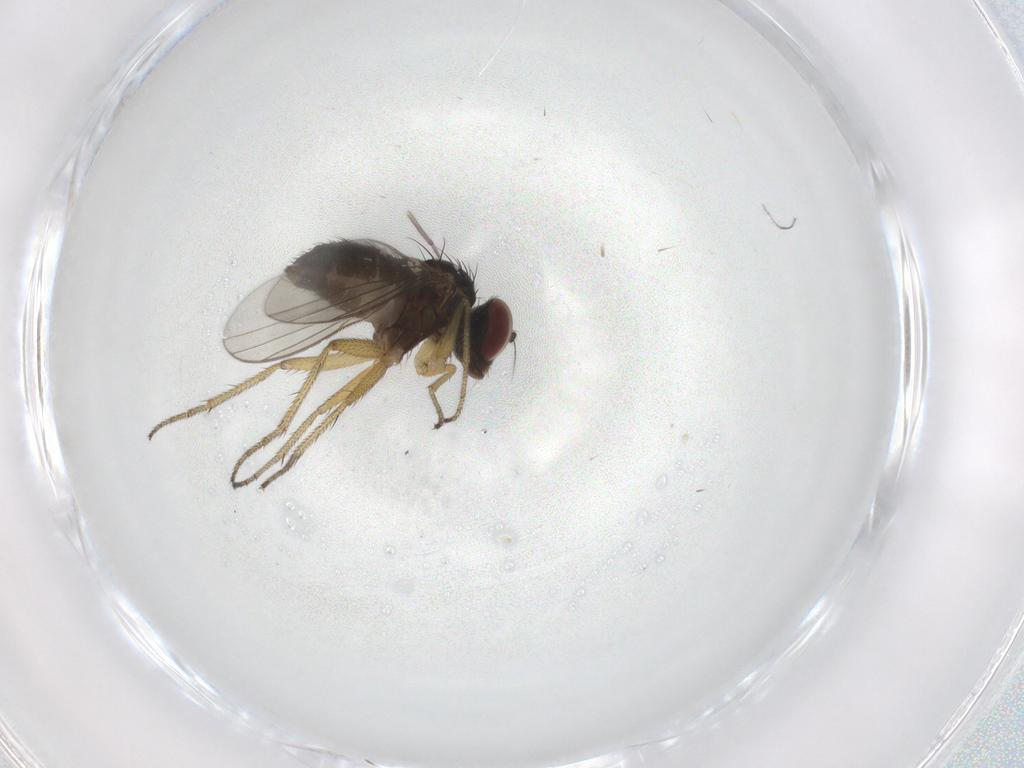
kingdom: Animalia
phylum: Arthropoda
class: Insecta
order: Diptera
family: Dolichopodidae
